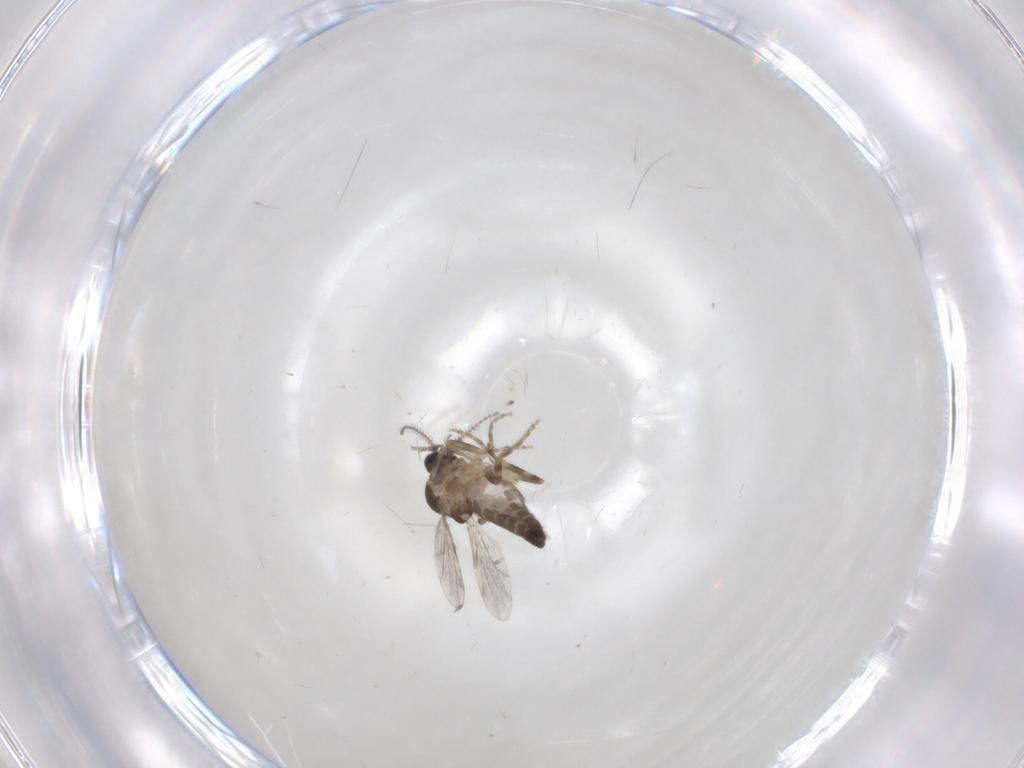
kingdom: Animalia
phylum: Arthropoda
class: Insecta
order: Diptera
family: Ceratopogonidae
